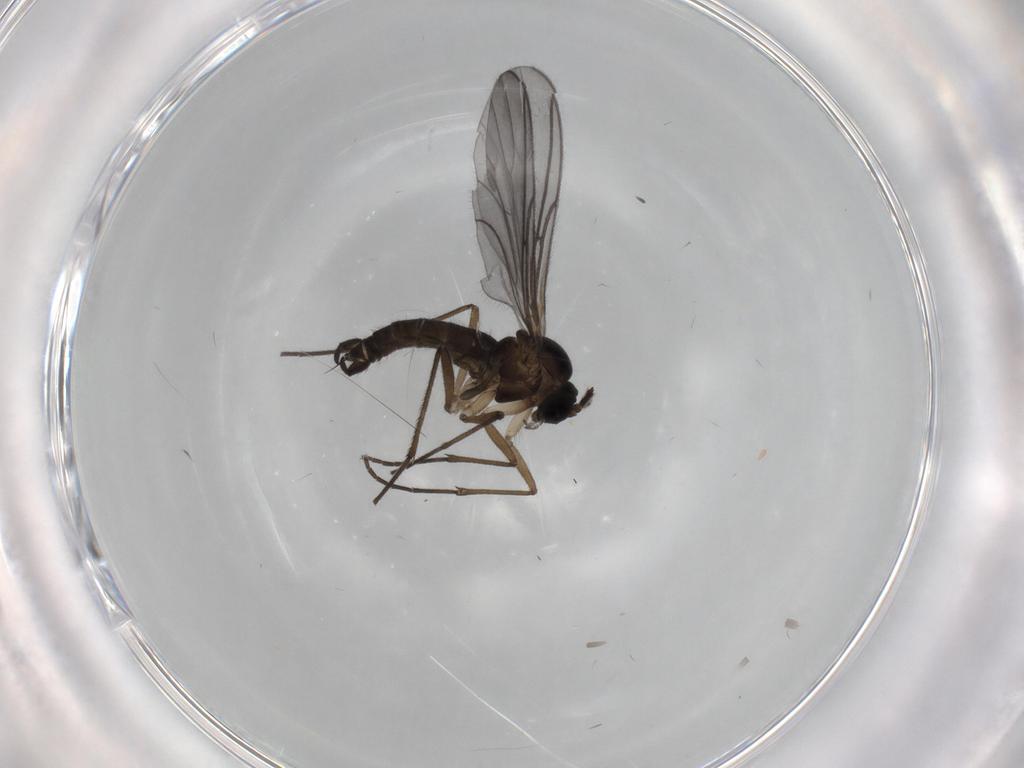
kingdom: Animalia
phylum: Arthropoda
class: Insecta
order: Diptera
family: Sciaridae
